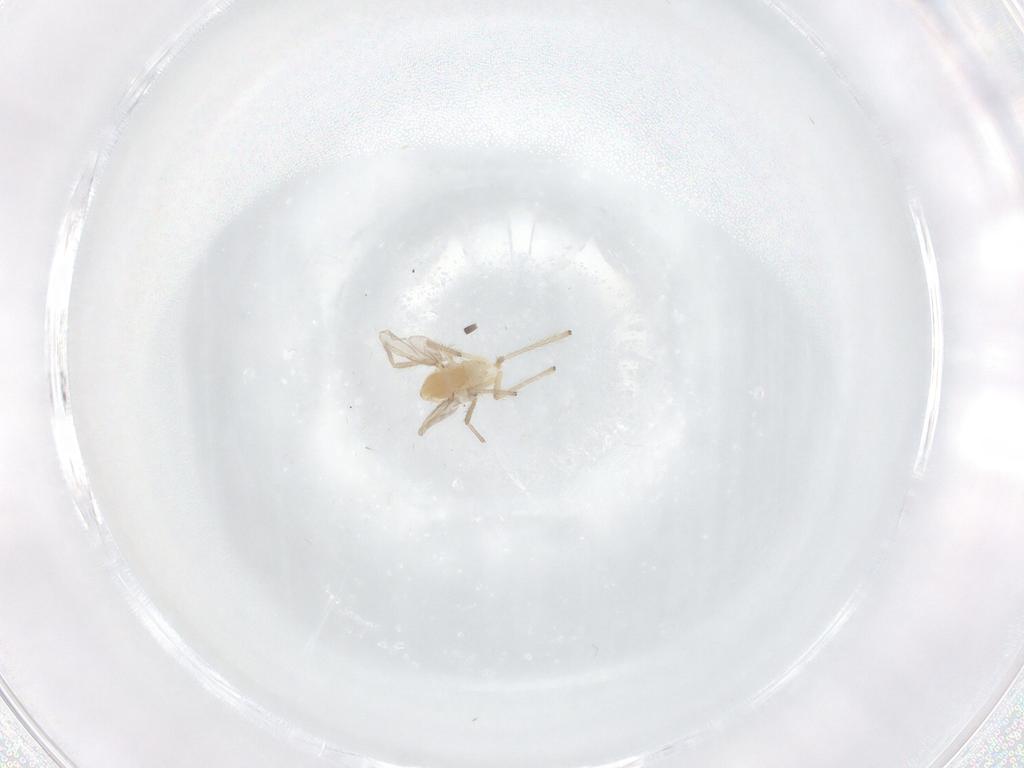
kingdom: Animalia
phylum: Arthropoda
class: Insecta
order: Diptera
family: Chironomidae
